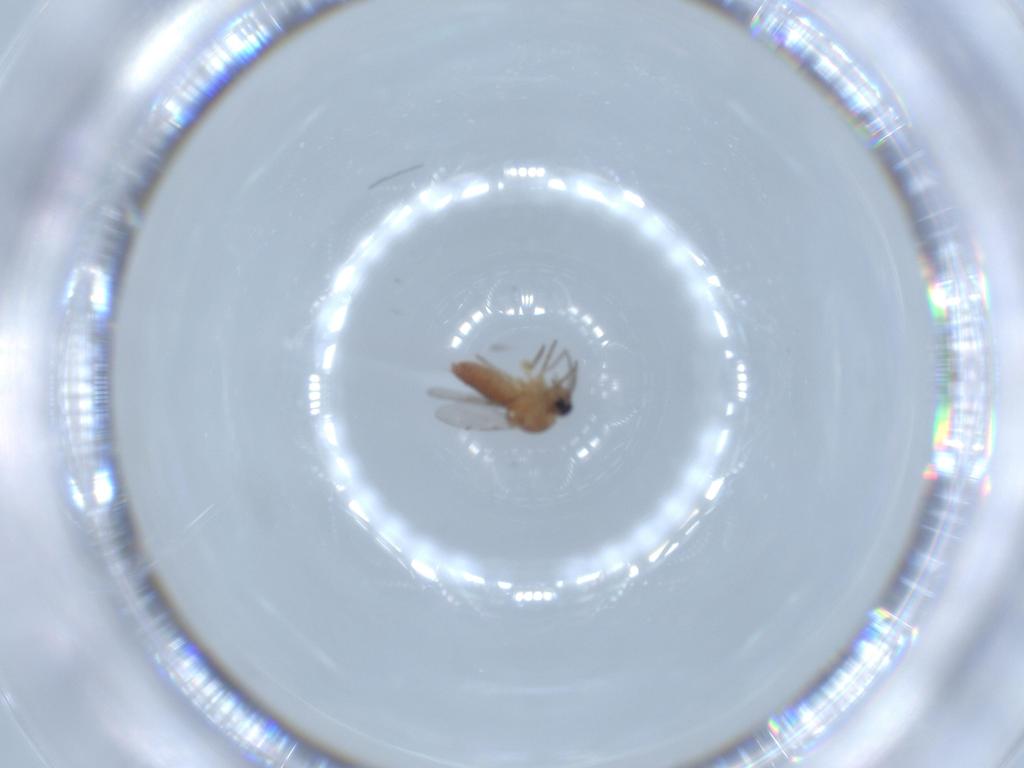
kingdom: Animalia
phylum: Arthropoda
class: Insecta
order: Diptera
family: Ceratopogonidae
